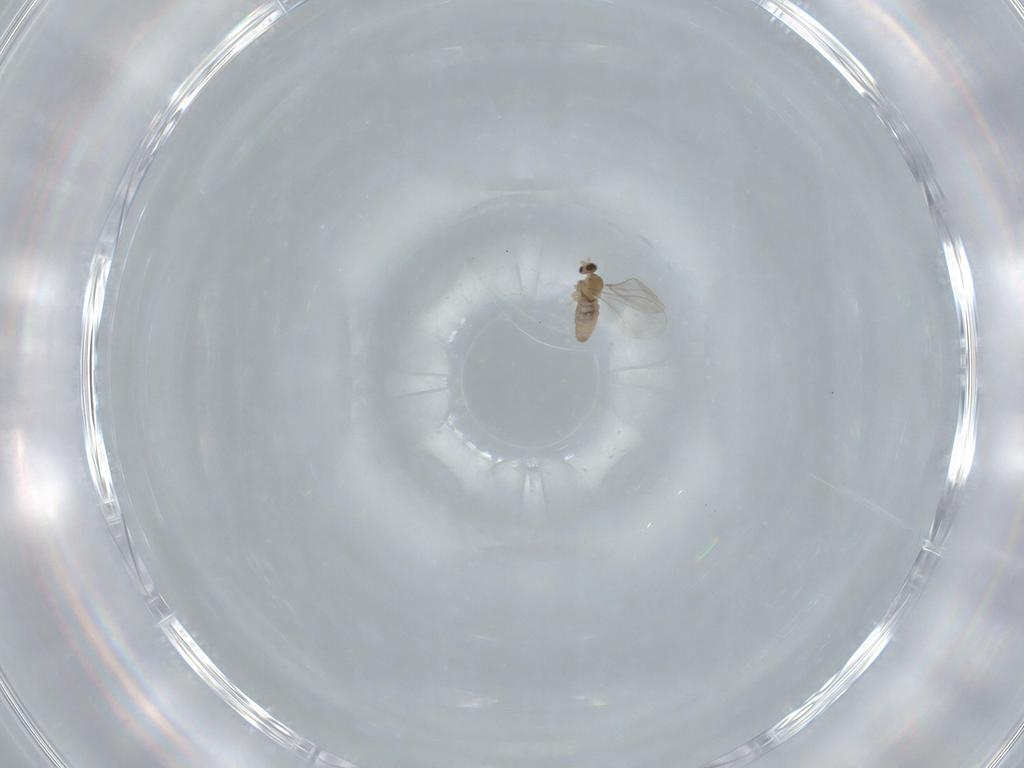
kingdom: Animalia
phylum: Arthropoda
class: Insecta
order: Diptera
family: Cecidomyiidae
